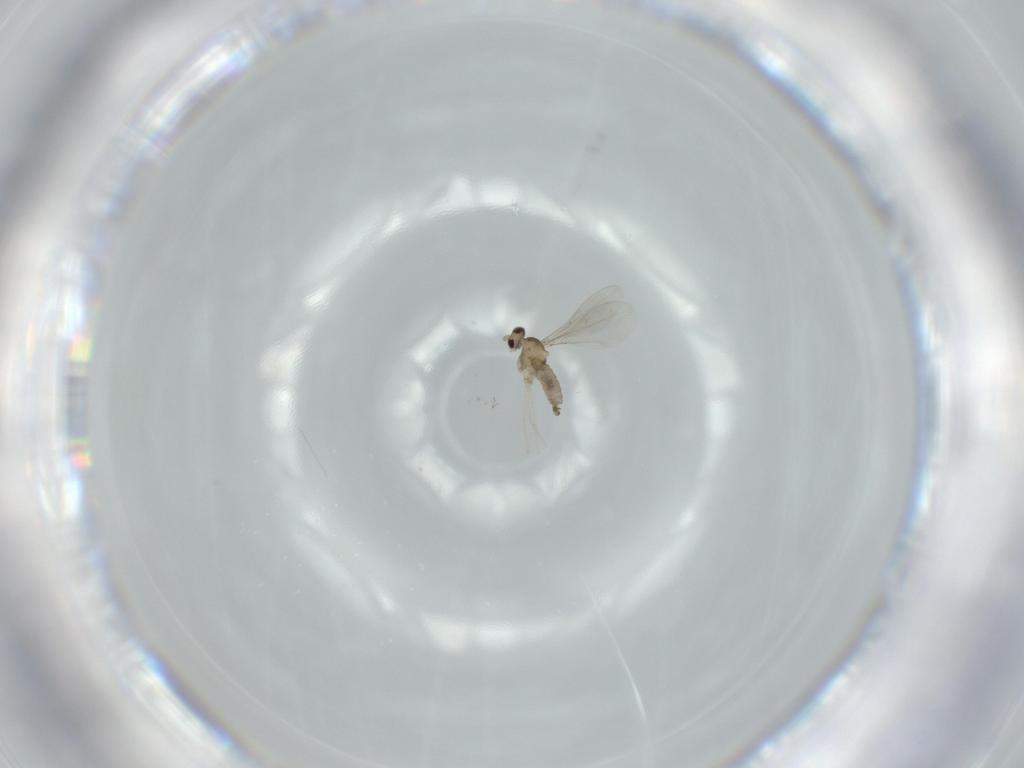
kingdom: Animalia
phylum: Arthropoda
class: Insecta
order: Diptera
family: Cecidomyiidae
